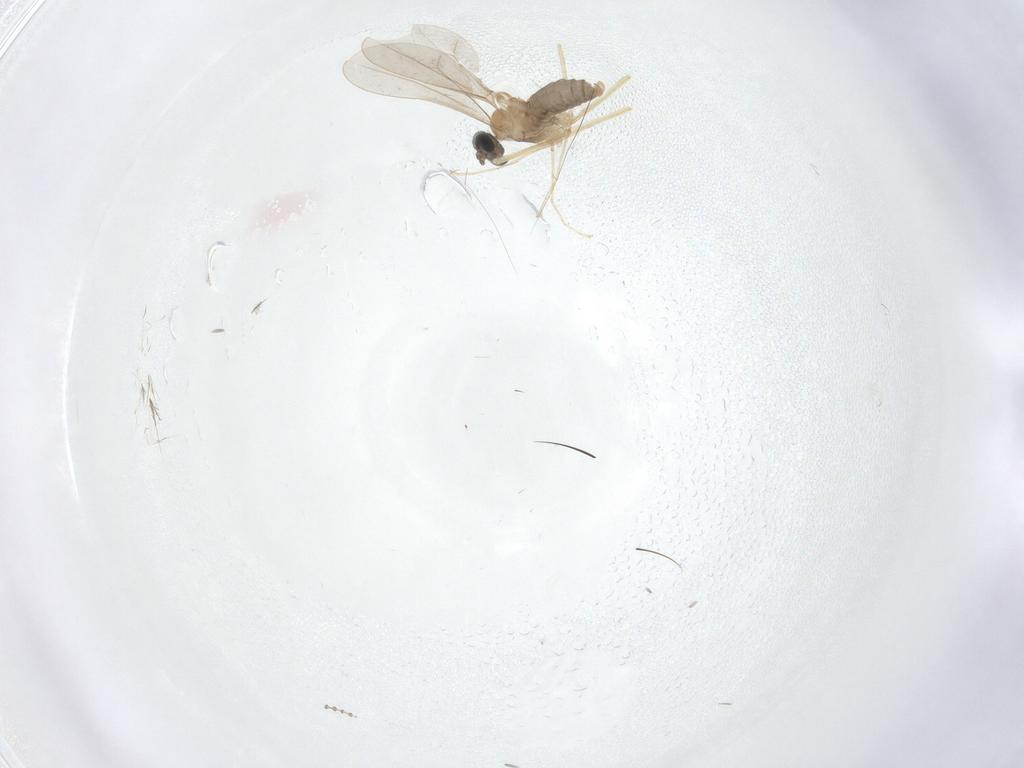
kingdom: Animalia
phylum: Arthropoda
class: Insecta
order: Diptera
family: Cecidomyiidae
